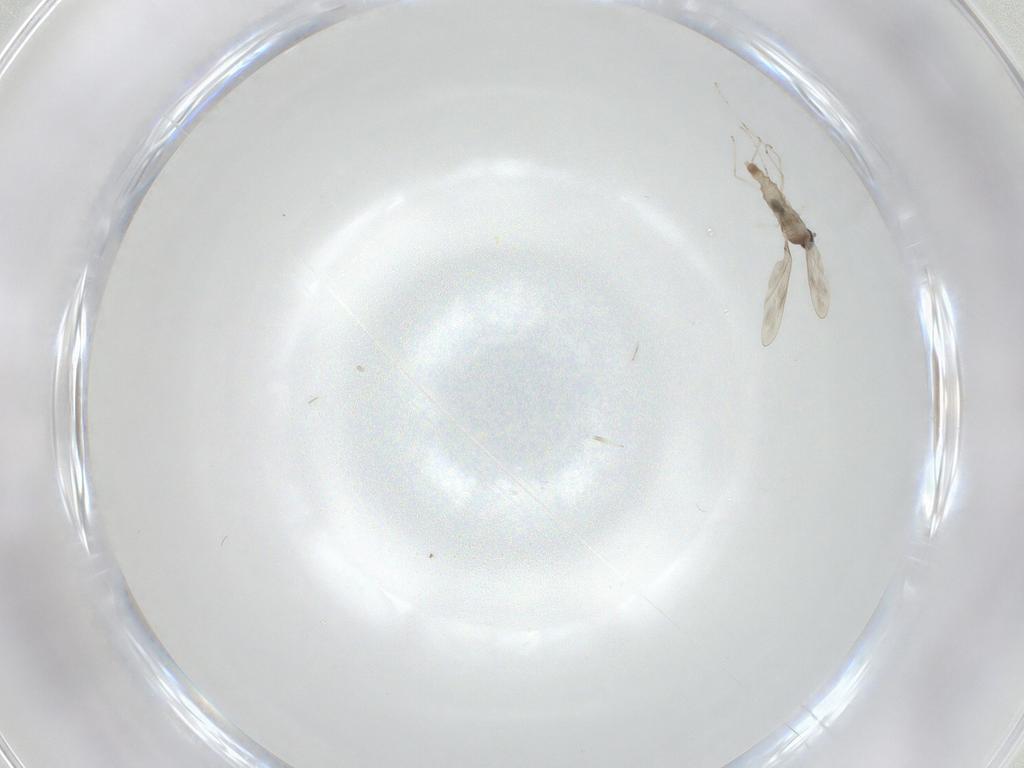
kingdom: Animalia
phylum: Arthropoda
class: Insecta
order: Diptera
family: Cecidomyiidae
